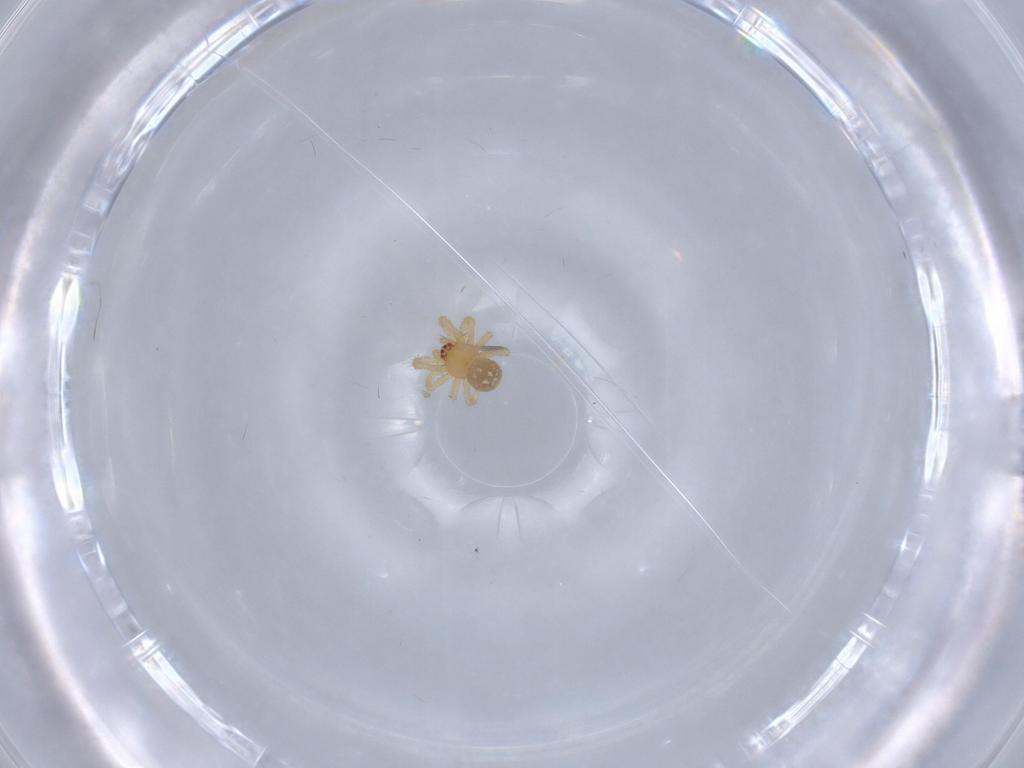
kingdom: Animalia
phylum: Arthropoda
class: Arachnida
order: Araneae
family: Theridiidae
